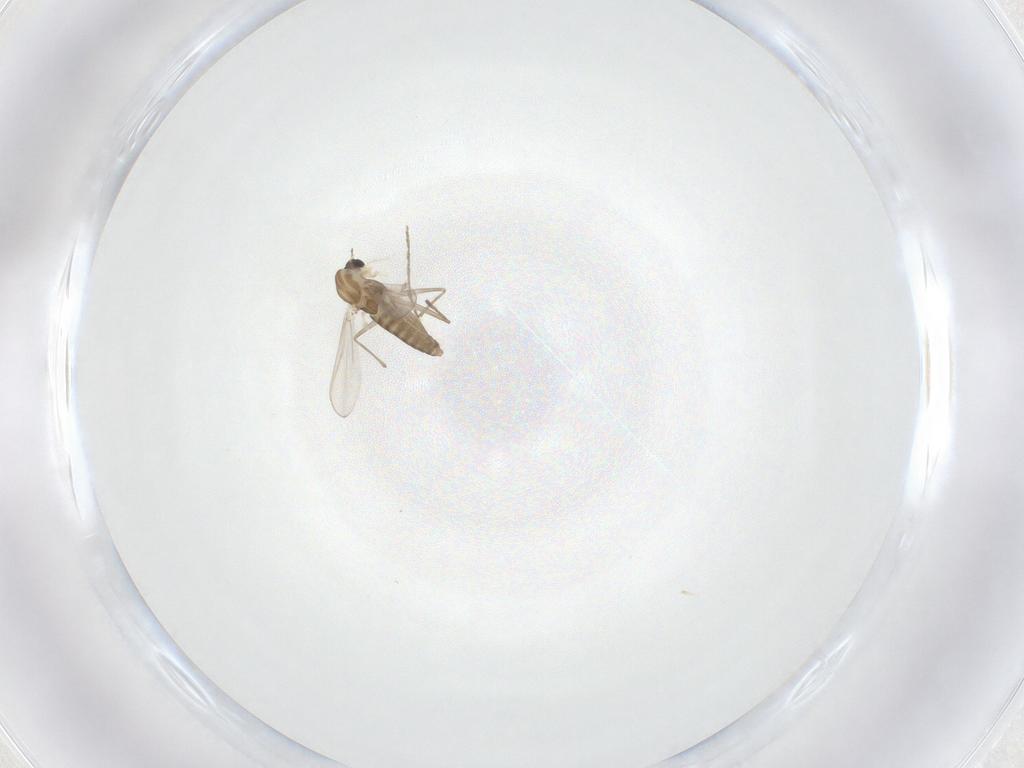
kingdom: Animalia
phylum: Arthropoda
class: Insecta
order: Diptera
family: Chironomidae
